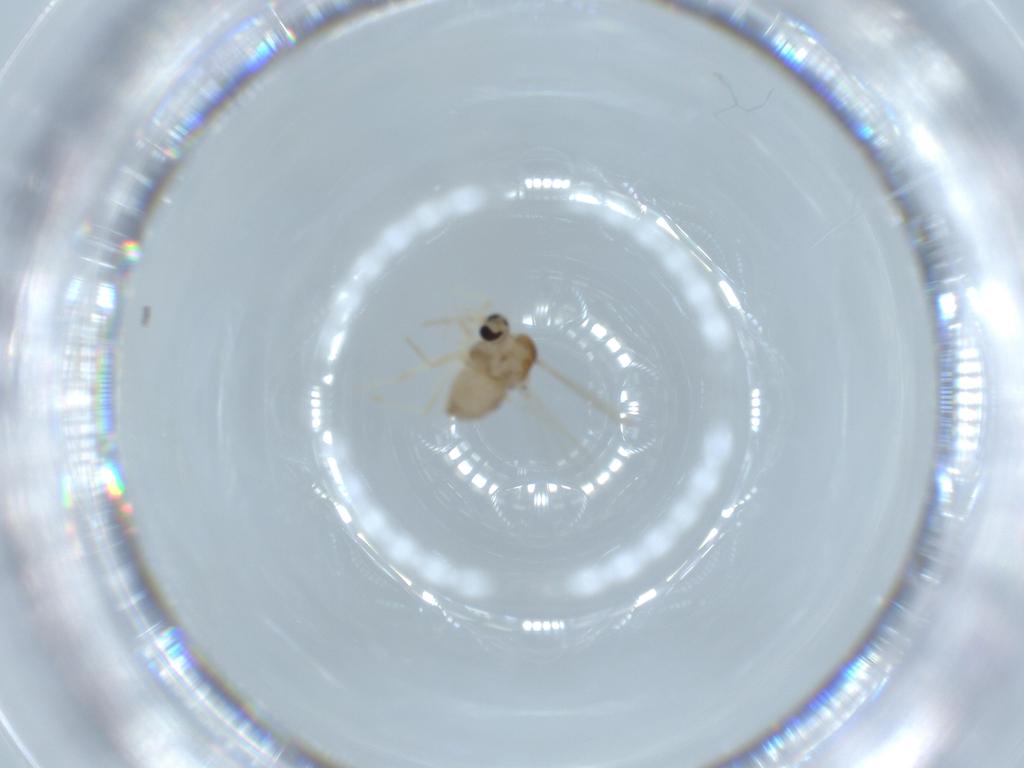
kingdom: Animalia
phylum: Arthropoda
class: Insecta
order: Diptera
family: Chironomidae
